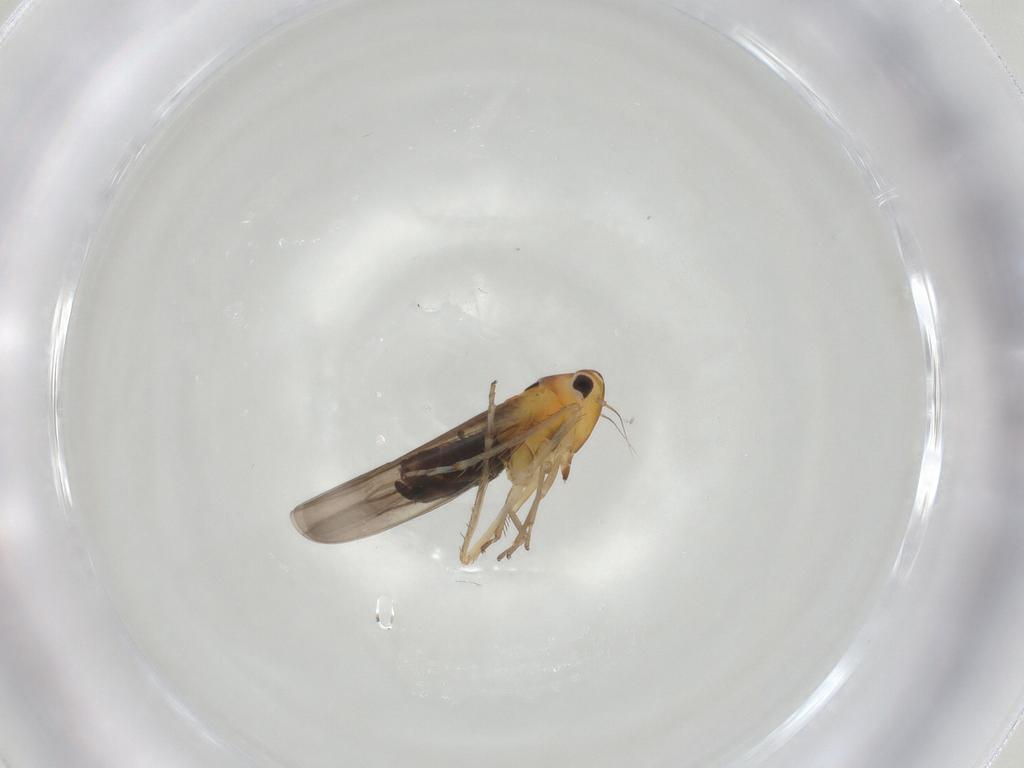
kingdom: Animalia
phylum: Arthropoda
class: Insecta
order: Hemiptera
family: Cicadellidae
